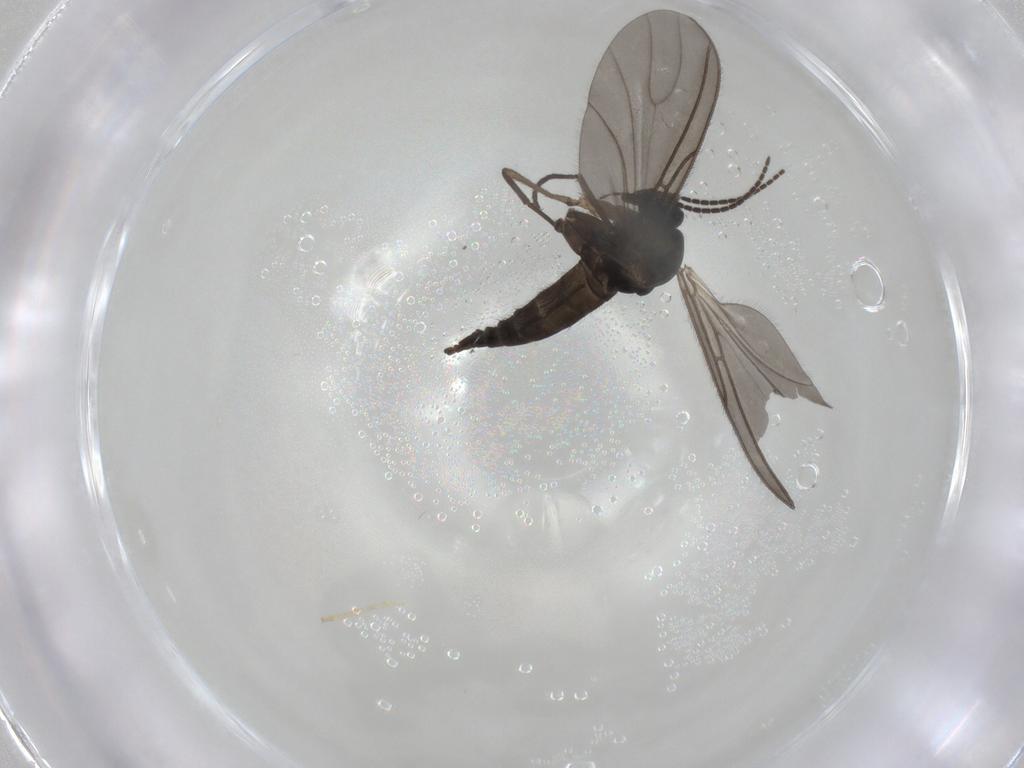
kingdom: Animalia
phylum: Arthropoda
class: Insecta
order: Diptera
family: Sciaridae
